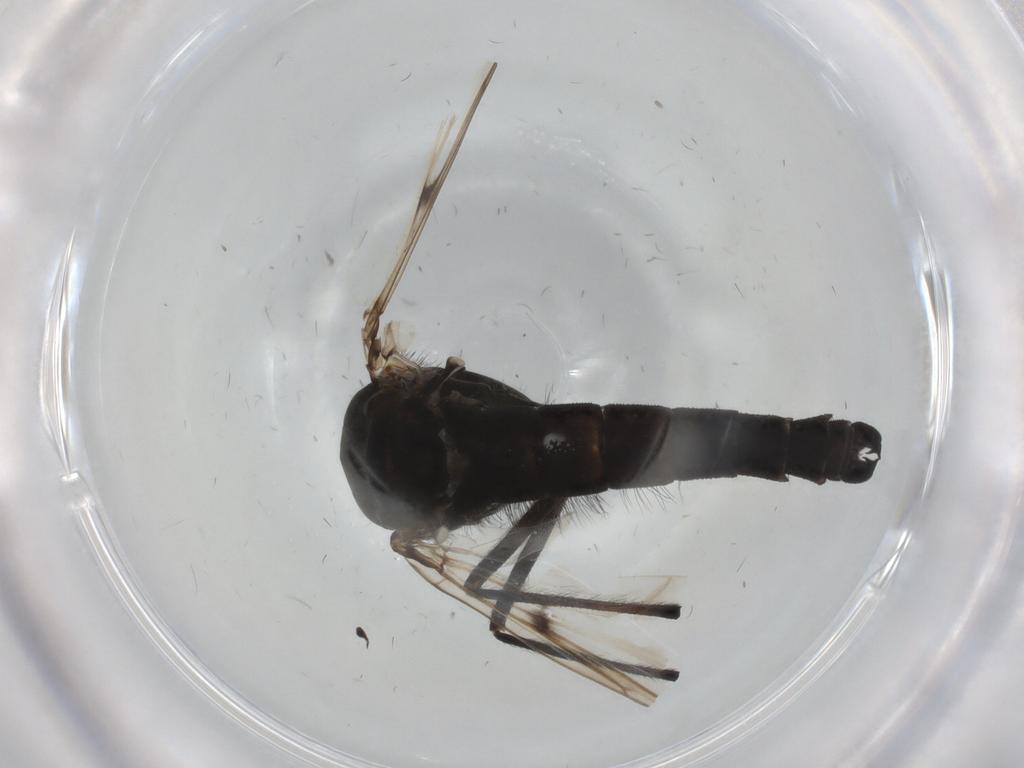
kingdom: Animalia
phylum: Arthropoda
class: Insecta
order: Diptera
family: Chironomidae
